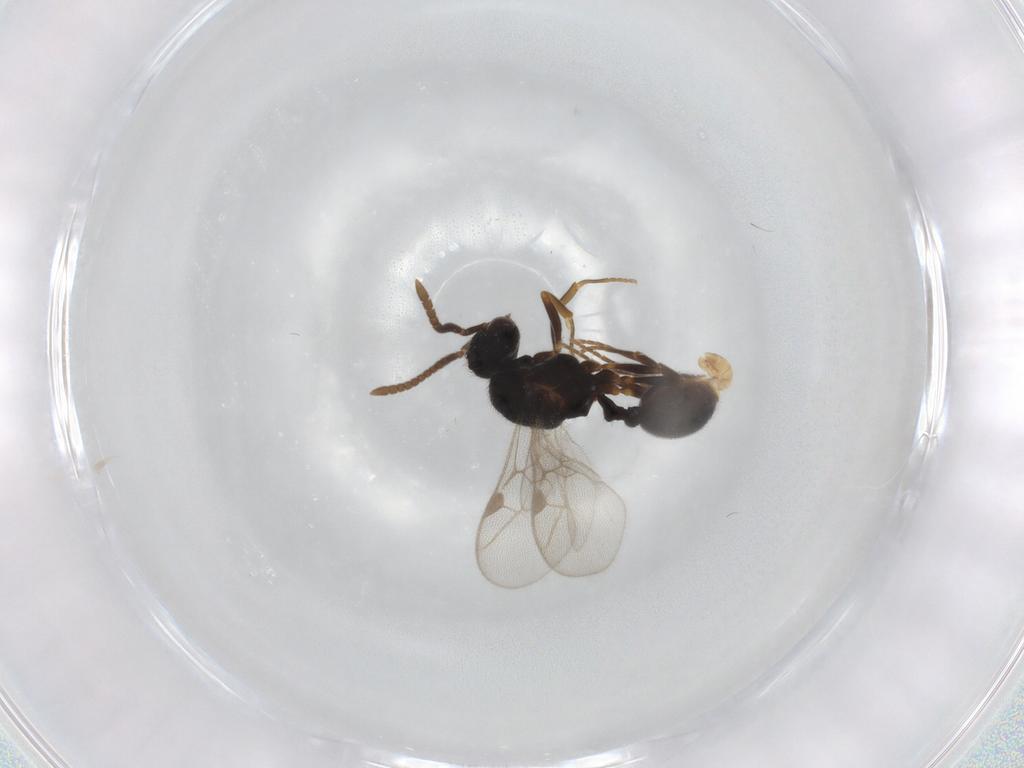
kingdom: Animalia
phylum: Arthropoda
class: Insecta
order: Hymenoptera
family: Formicidae
